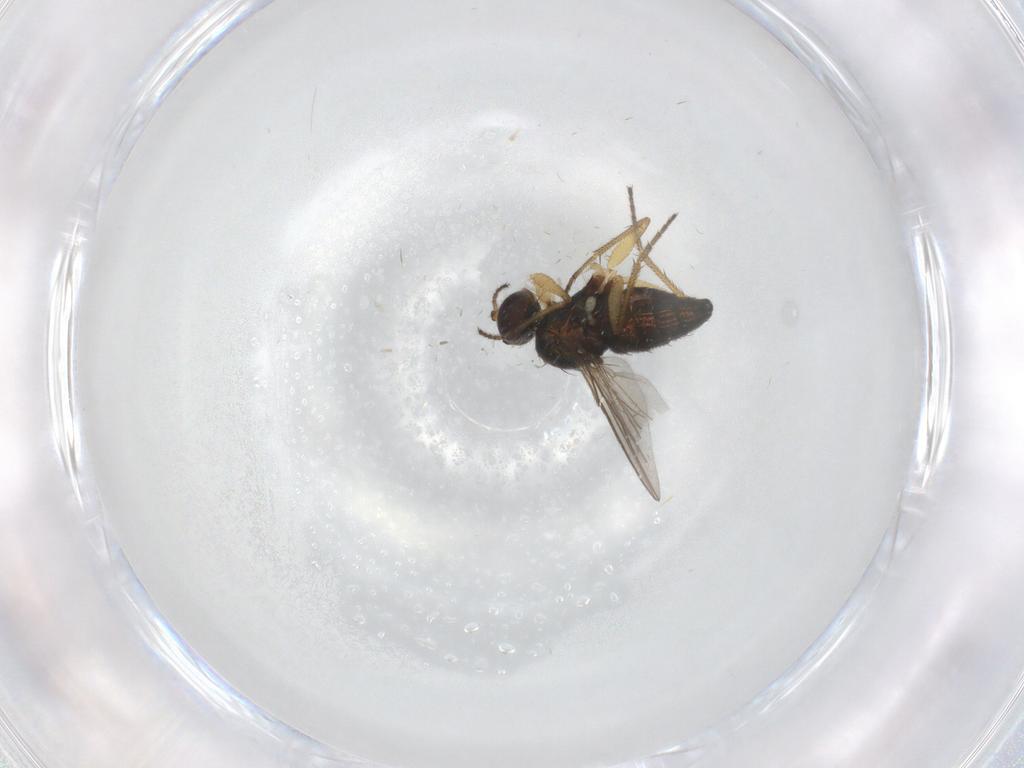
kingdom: Animalia
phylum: Arthropoda
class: Insecta
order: Diptera
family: Dolichopodidae
